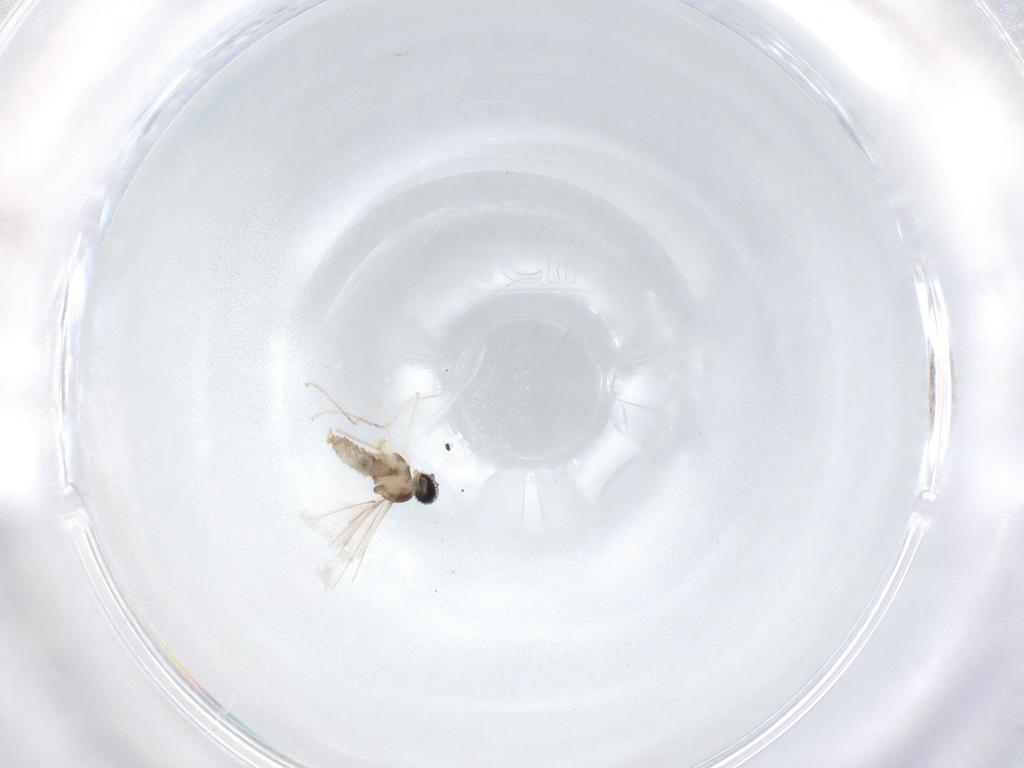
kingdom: Animalia
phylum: Arthropoda
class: Insecta
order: Diptera
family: Cecidomyiidae
